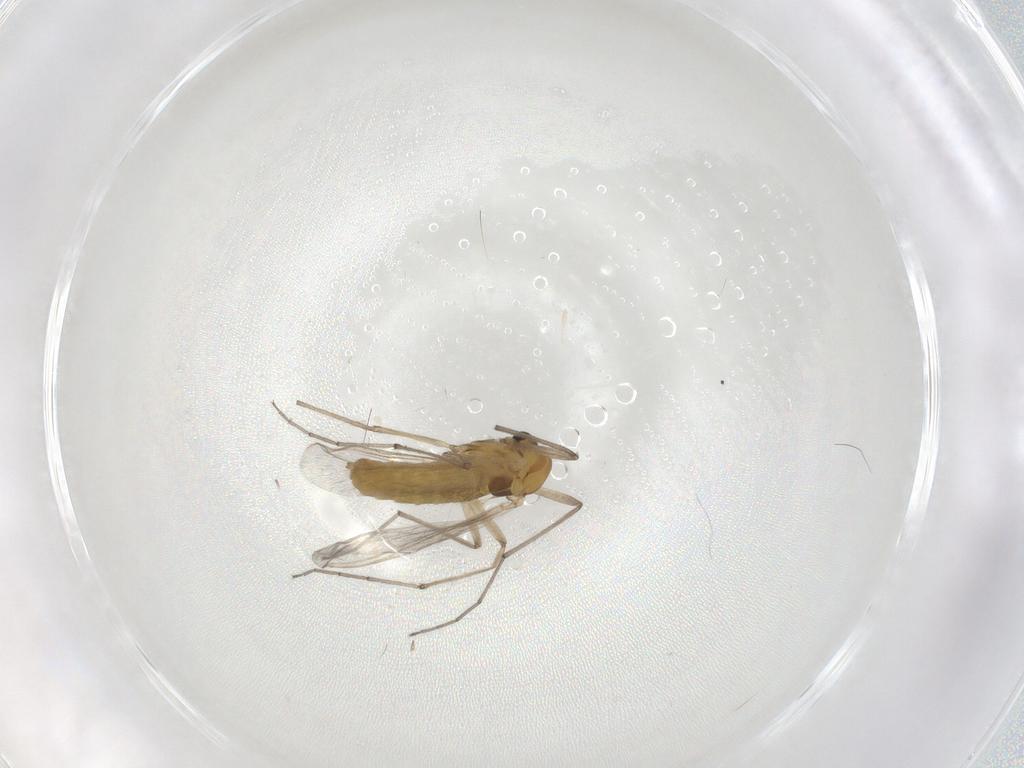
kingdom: Animalia
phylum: Arthropoda
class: Insecta
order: Diptera
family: Chironomidae
